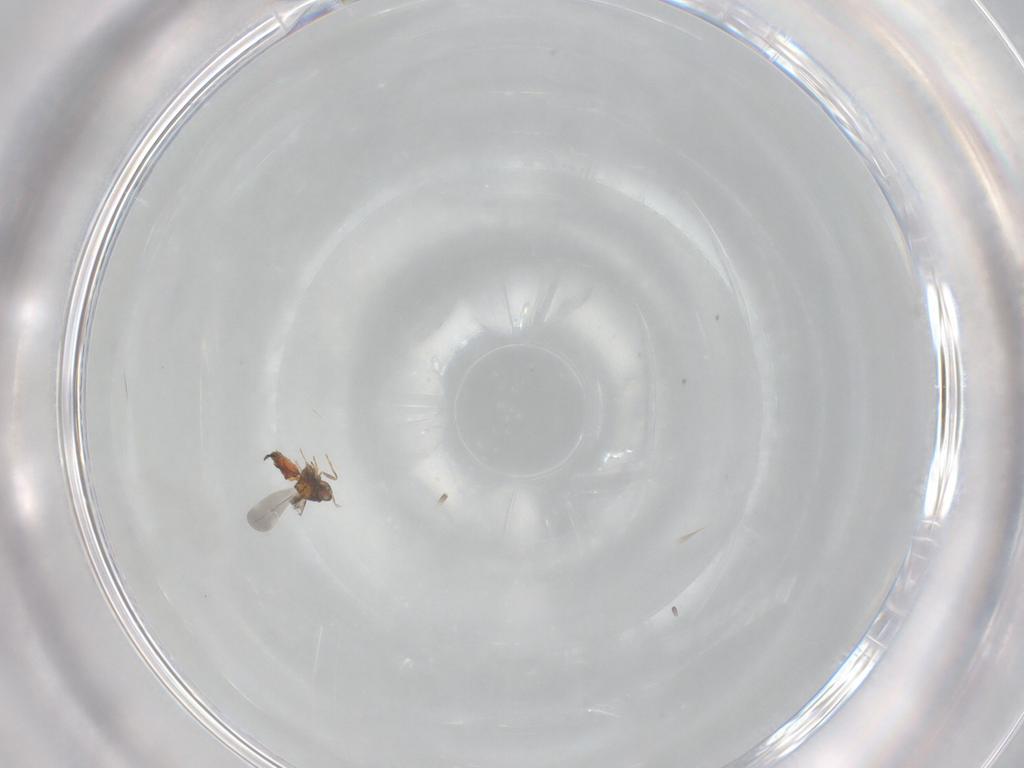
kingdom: Animalia
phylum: Arthropoda
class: Insecta
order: Hemiptera
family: Aleyrodidae
